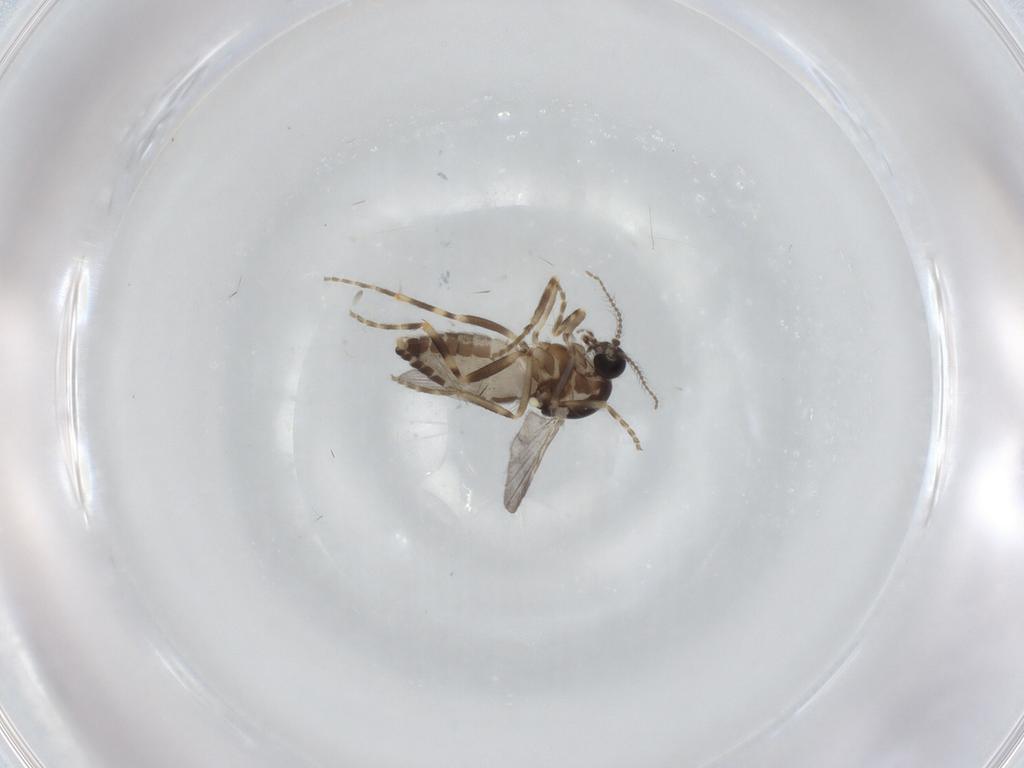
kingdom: Animalia
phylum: Arthropoda
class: Insecta
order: Diptera
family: Ceratopogonidae
